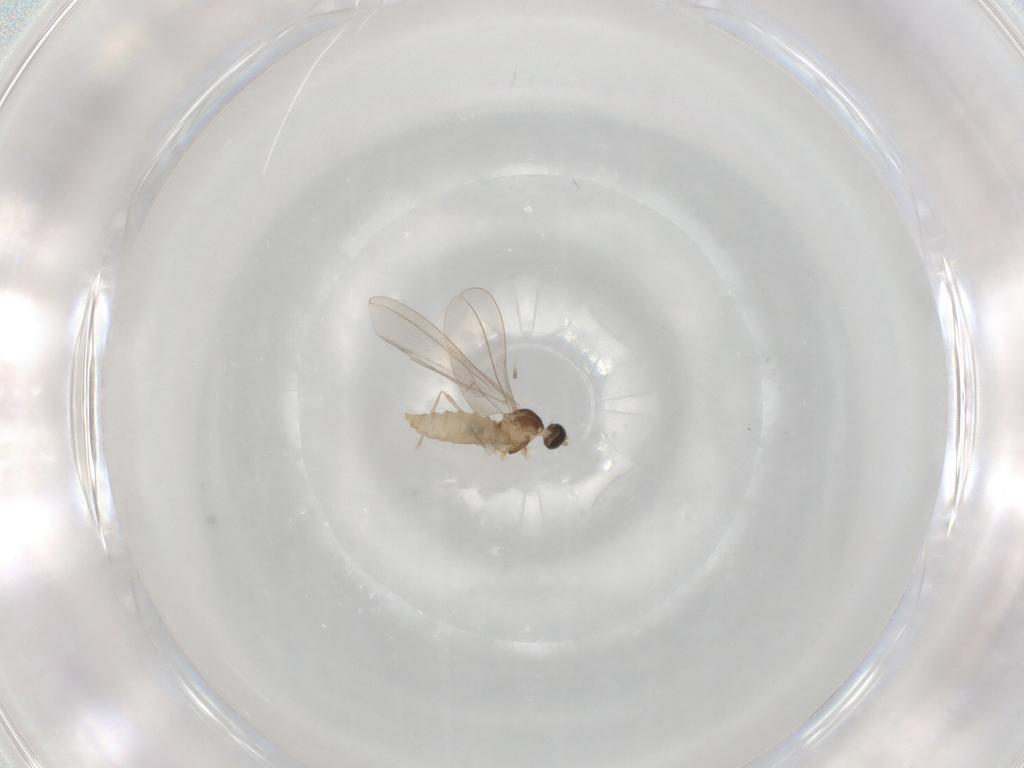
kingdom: Animalia
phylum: Arthropoda
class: Insecta
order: Diptera
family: Cecidomyiidae
